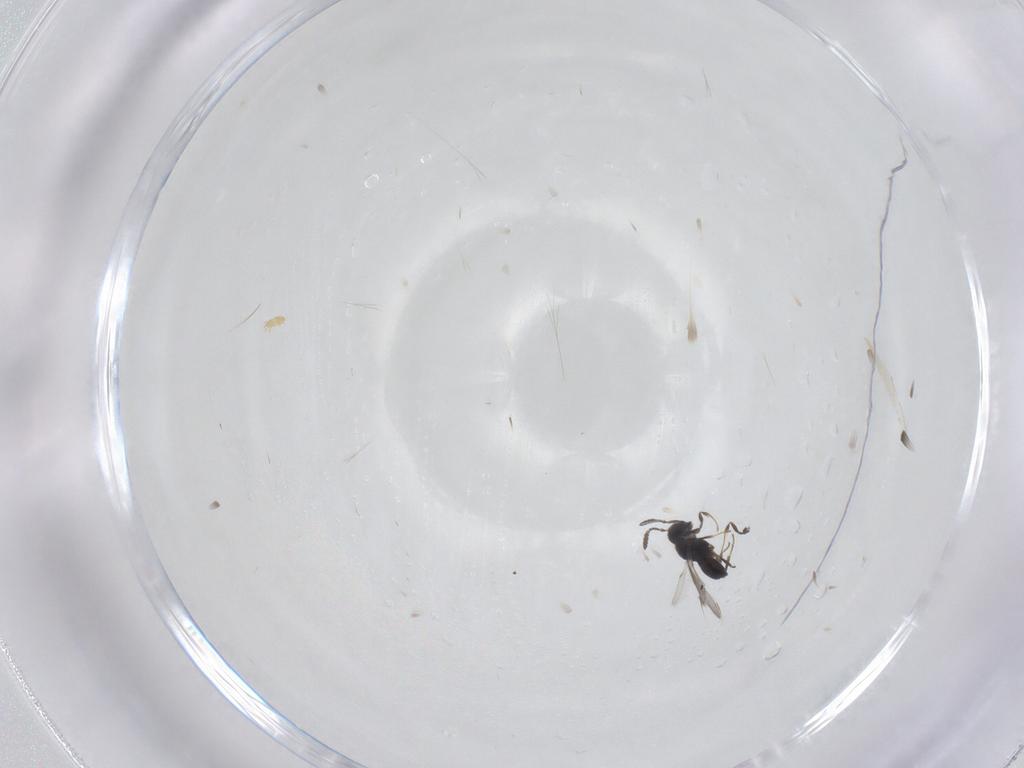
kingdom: Animalia
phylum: Arthropoda
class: Insecta
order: Hymenoptera
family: Scelionidae
